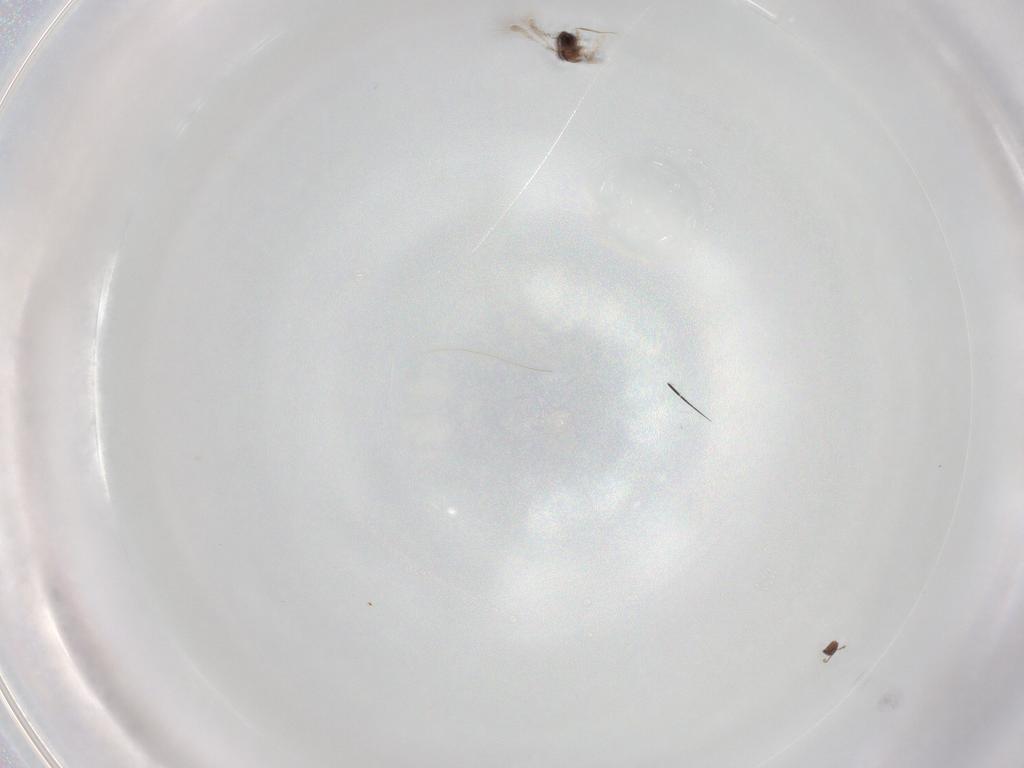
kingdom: Animalia
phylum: Arthropoda
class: Insecta
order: Hymenoptera
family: Mymaridae
